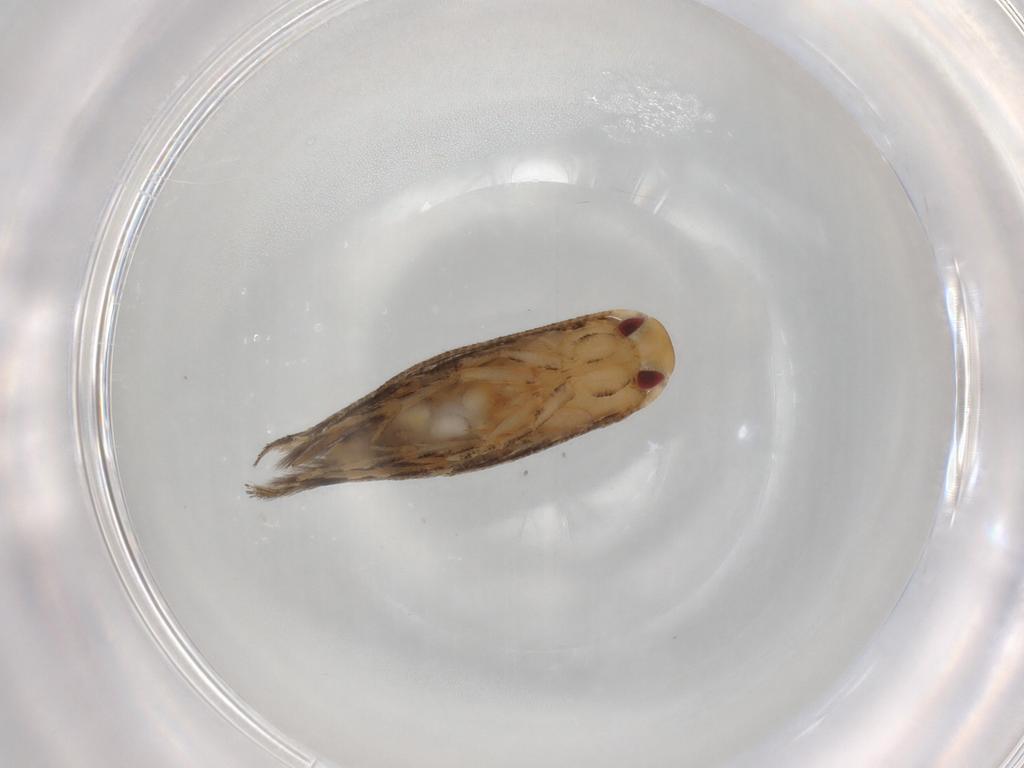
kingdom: Animalia
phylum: Arthropoda
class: Insecta
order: Lepidoptera
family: Tineidae
